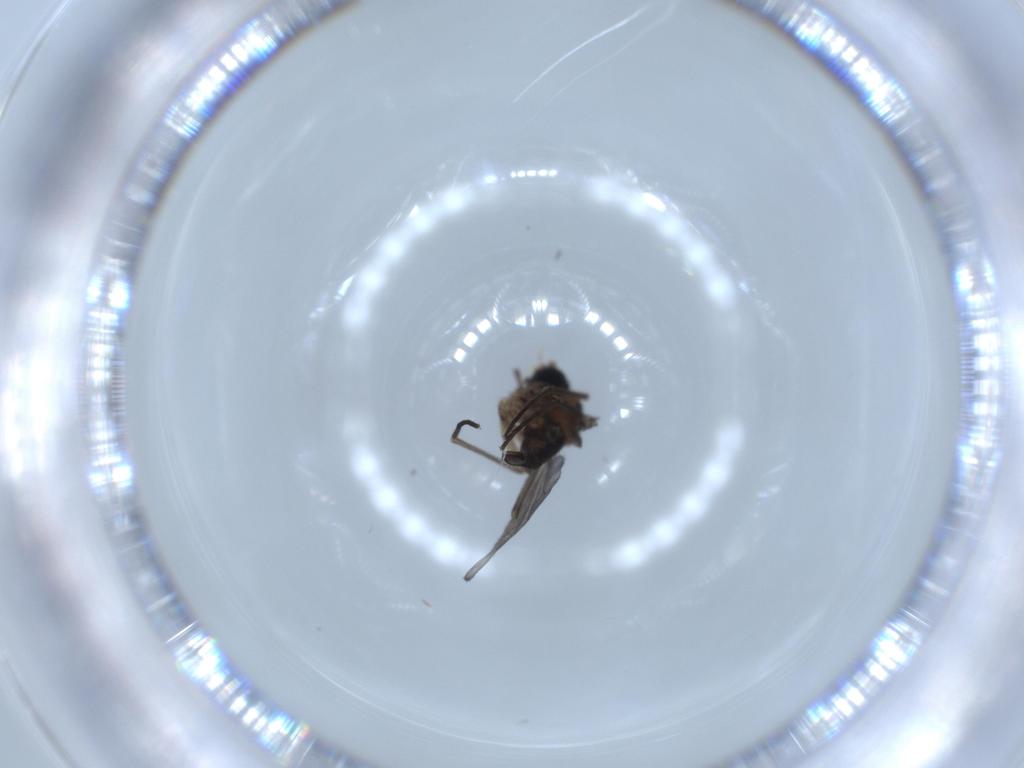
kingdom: Animalia
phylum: Arthropoda
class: Insecta
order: Diptera
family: Sciaridae
